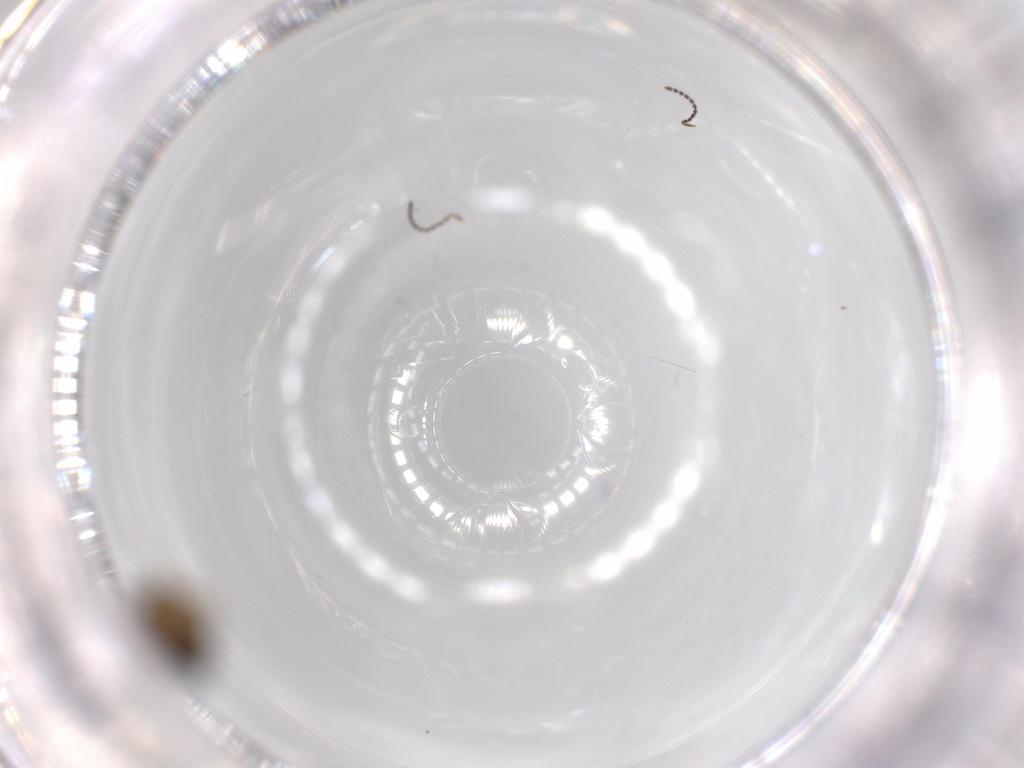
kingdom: Animalia
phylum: Arthropoda
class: Insecta
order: Hymenoptera
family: Torymidae
